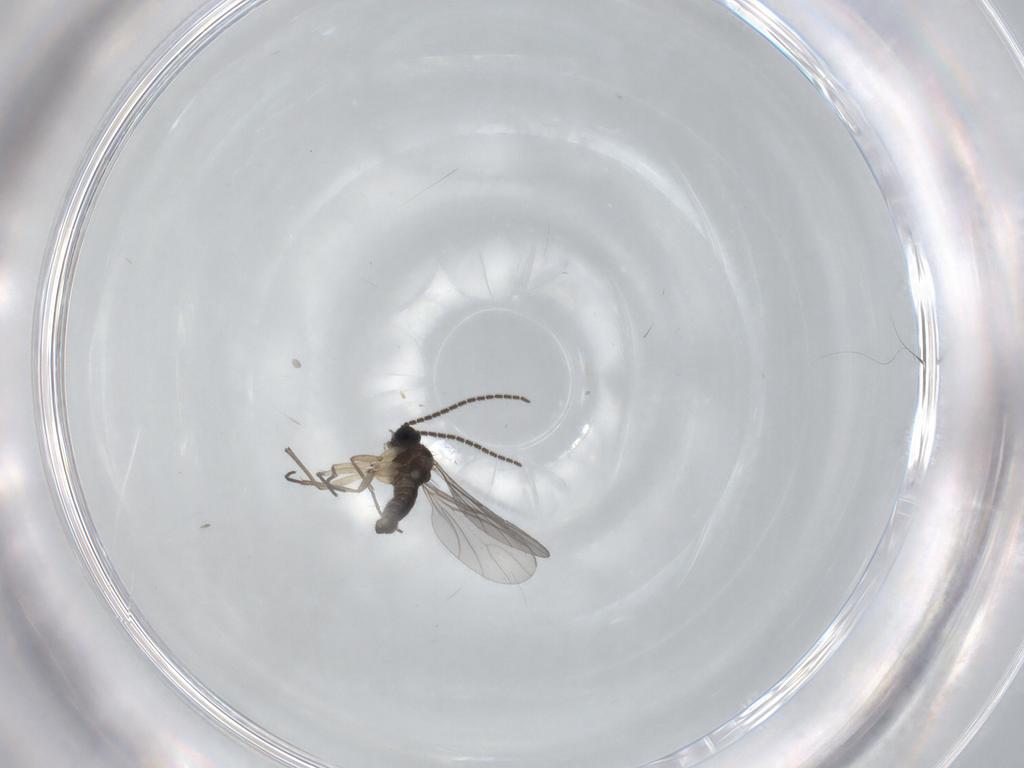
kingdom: Animalia
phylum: Arthropoda
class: Insecta
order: Diptera
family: Sciaridae
